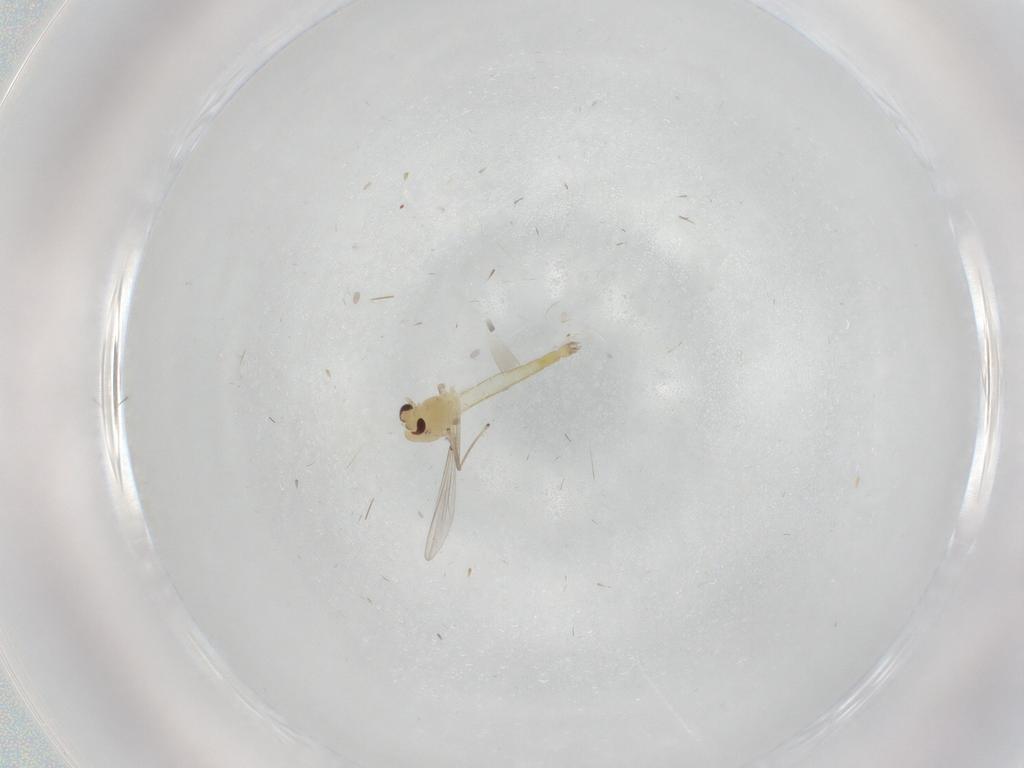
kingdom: Animalia
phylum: Arthropoda
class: Insecta
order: Diptera
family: Chironomidae
